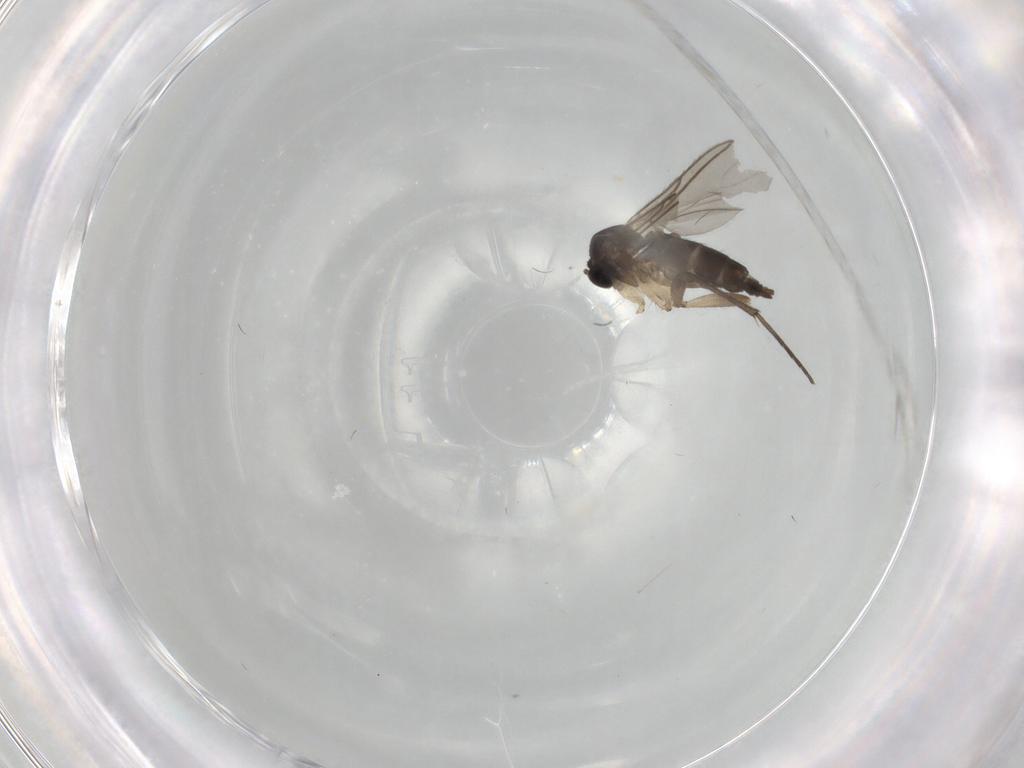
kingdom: Animalia
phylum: Arthropoda
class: Insecta
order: Diptera
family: Sciaridae
